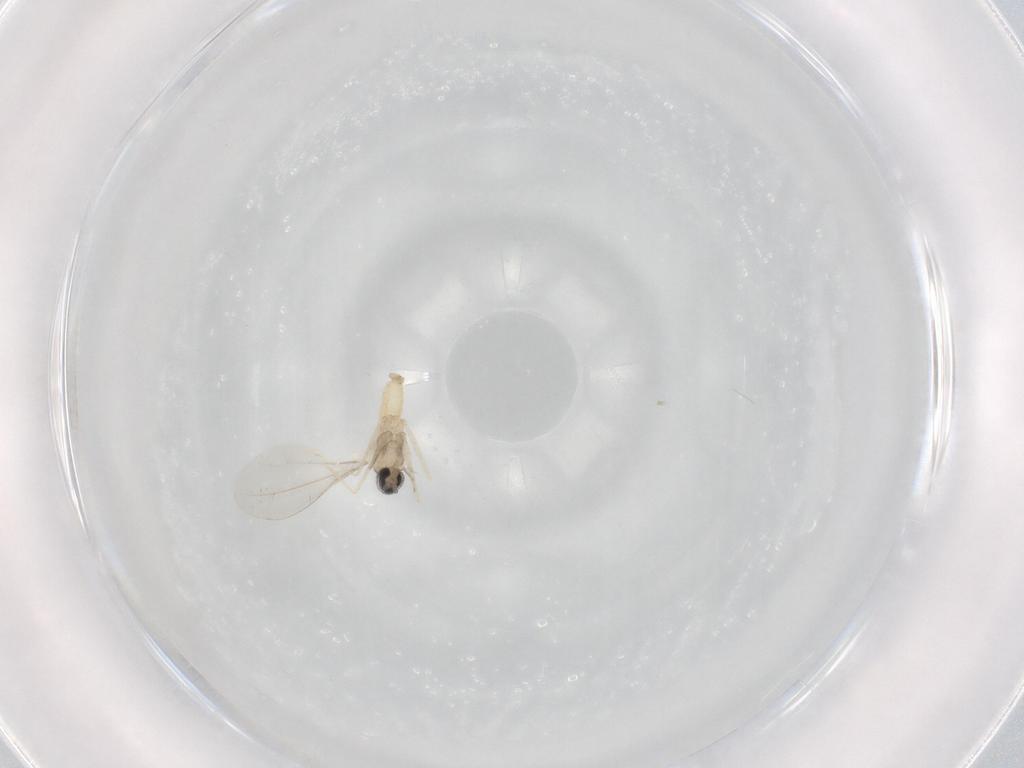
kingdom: Animalia
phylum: Arthropoda
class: Insecta
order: Diptera
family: Cecidomyiidae
